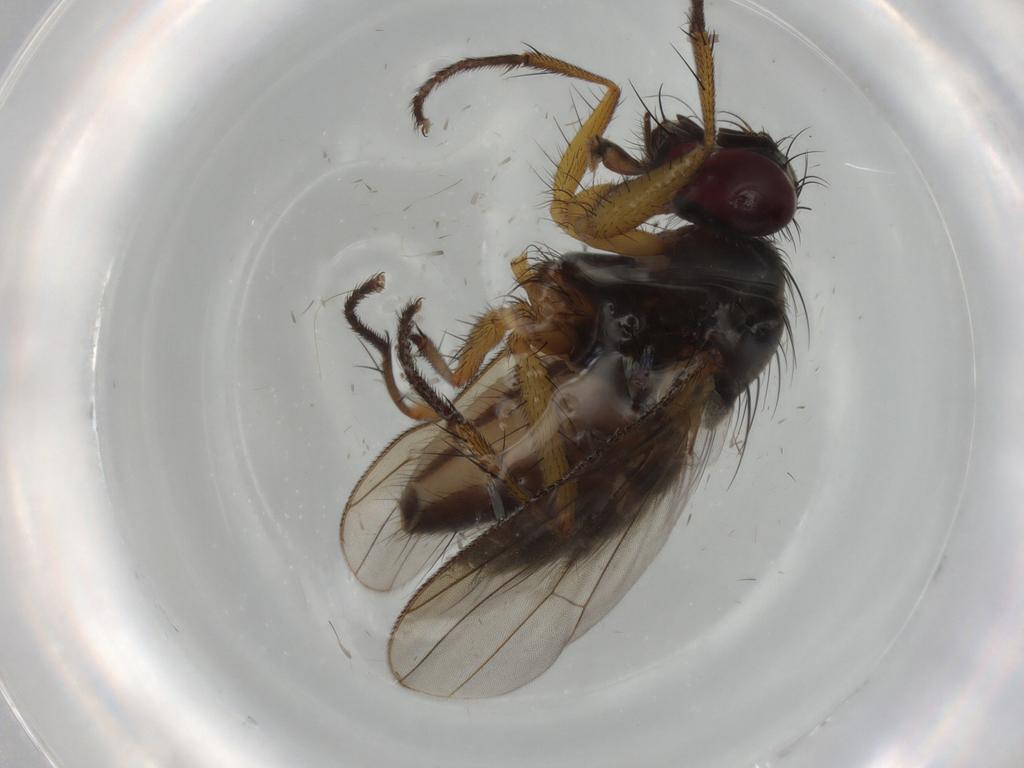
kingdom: Animalia
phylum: Arthropoda
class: Insecta
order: Diptera
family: Muscidae
